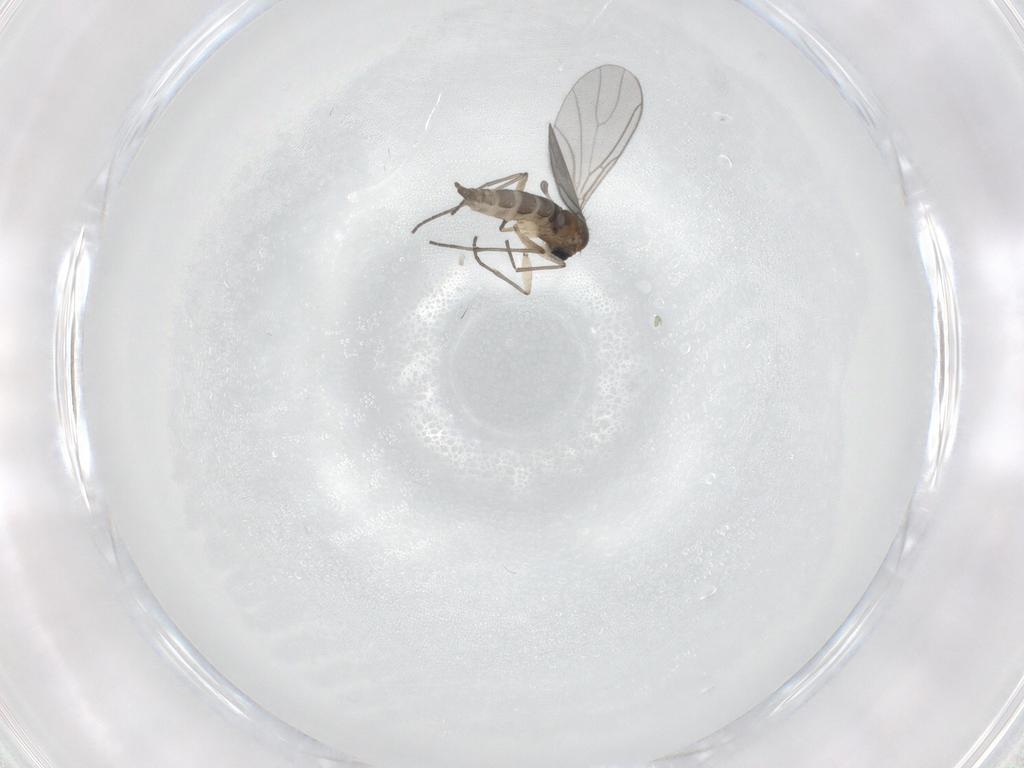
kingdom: Animalia
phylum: Arthropoda
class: Insecta
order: Diptera
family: Sciaridae
